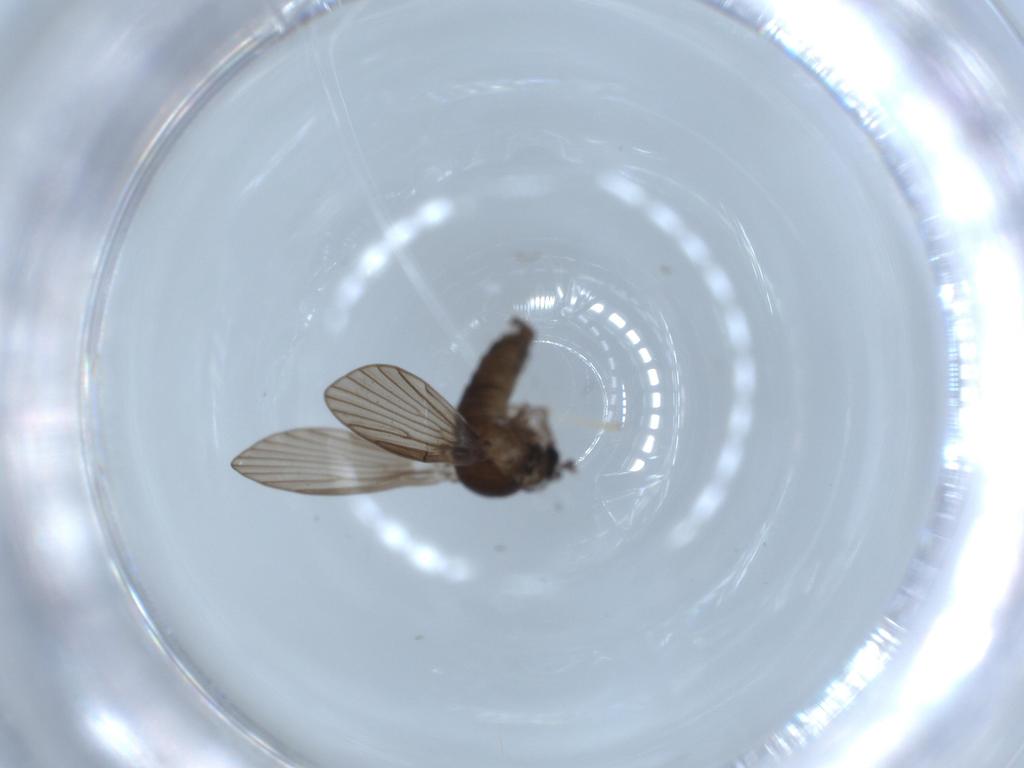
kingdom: Animalia
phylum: Arthropoda
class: Insecta
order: Diptera
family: Psychodidae
